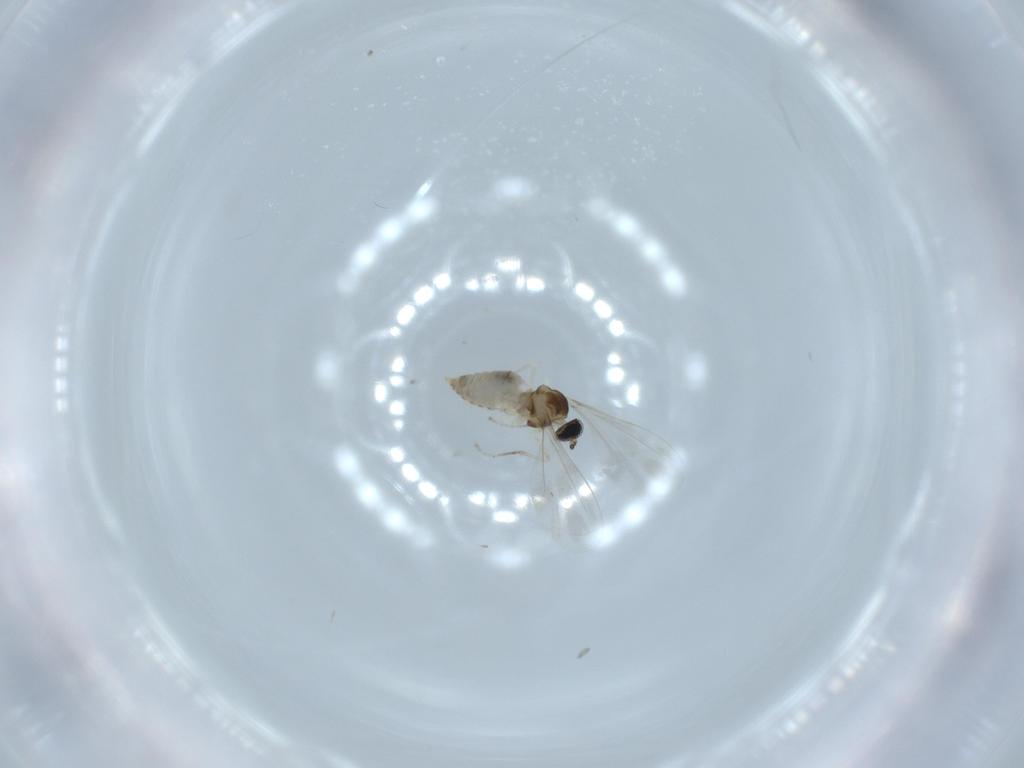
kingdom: Animalia
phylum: Arthropoda
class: Insecta
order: Diptera
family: Cecidomyiidae
